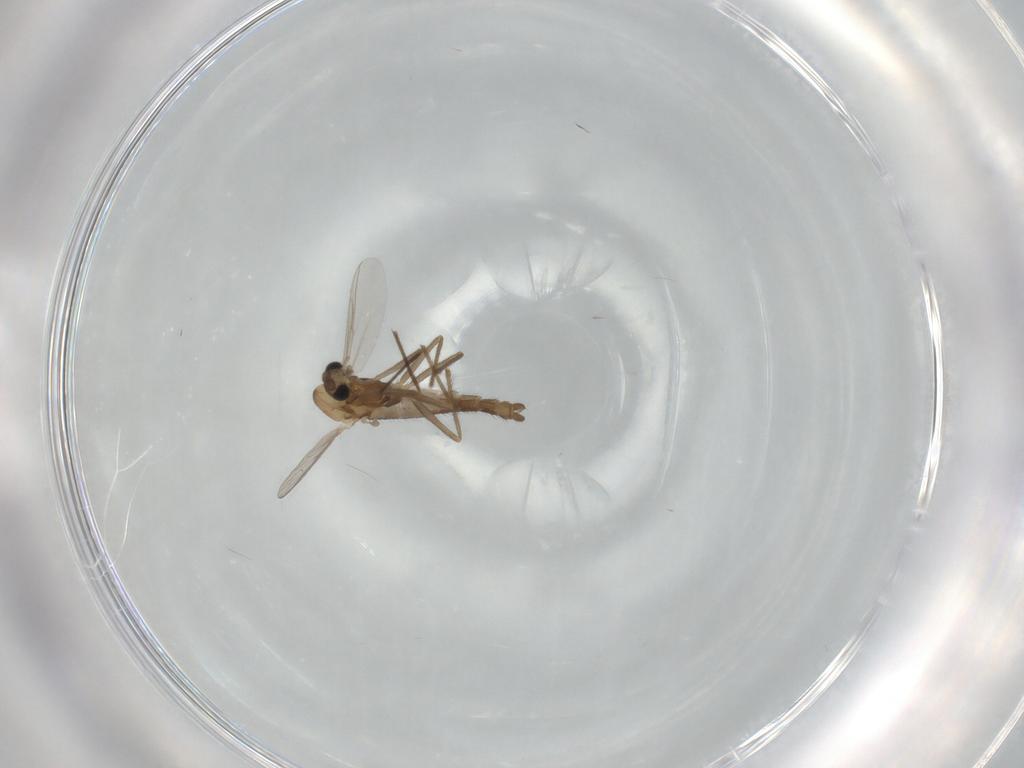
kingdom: Animalia
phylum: Arthropoda
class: Insecta
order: Diptera
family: Chironomidae
